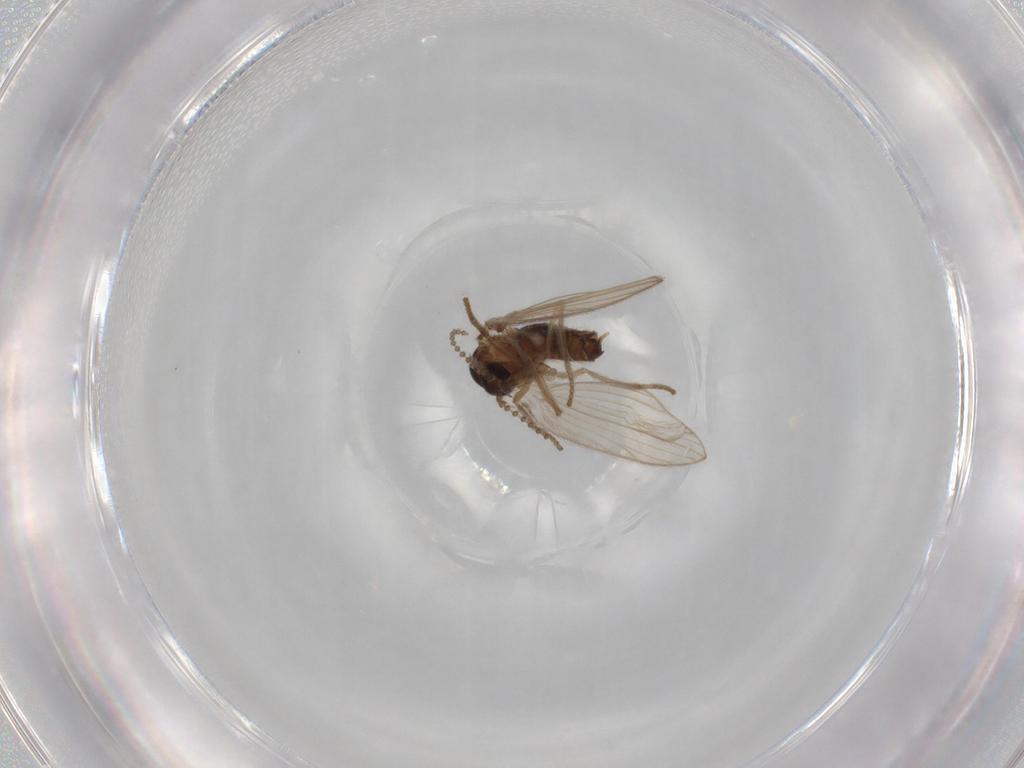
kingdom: Animalia
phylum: Arthropoda
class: Insecta
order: Diptera
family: Psychodidae
